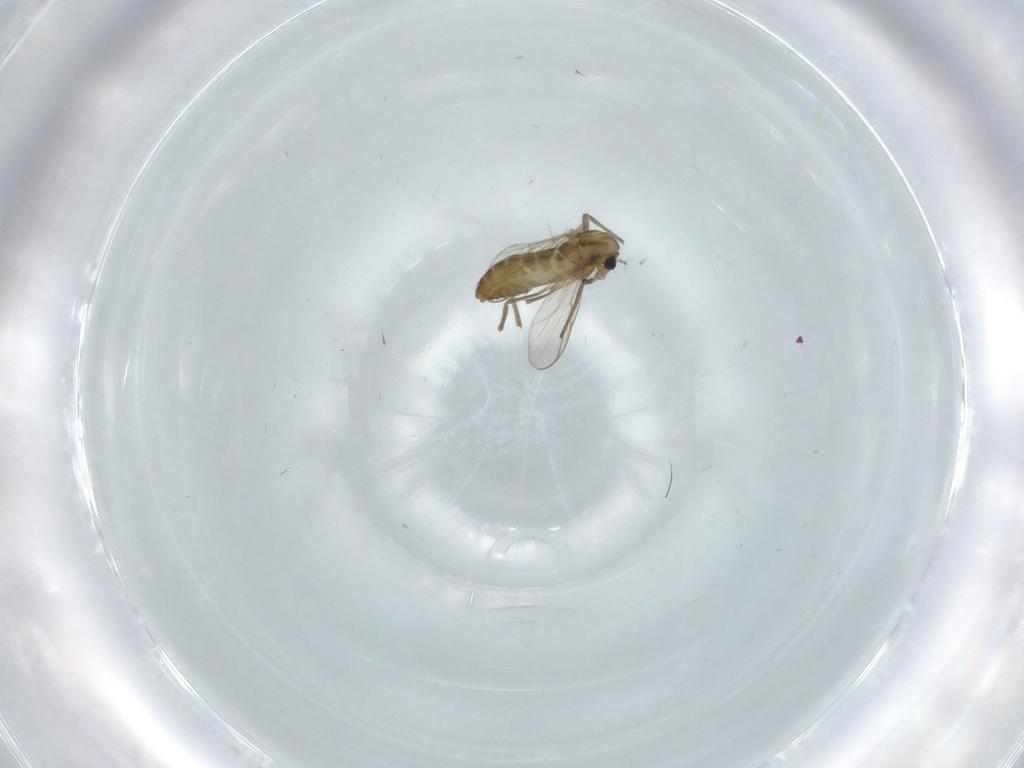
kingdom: Animalia
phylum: Arthropoda
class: Insecta
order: Diptera
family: Chironomidae
